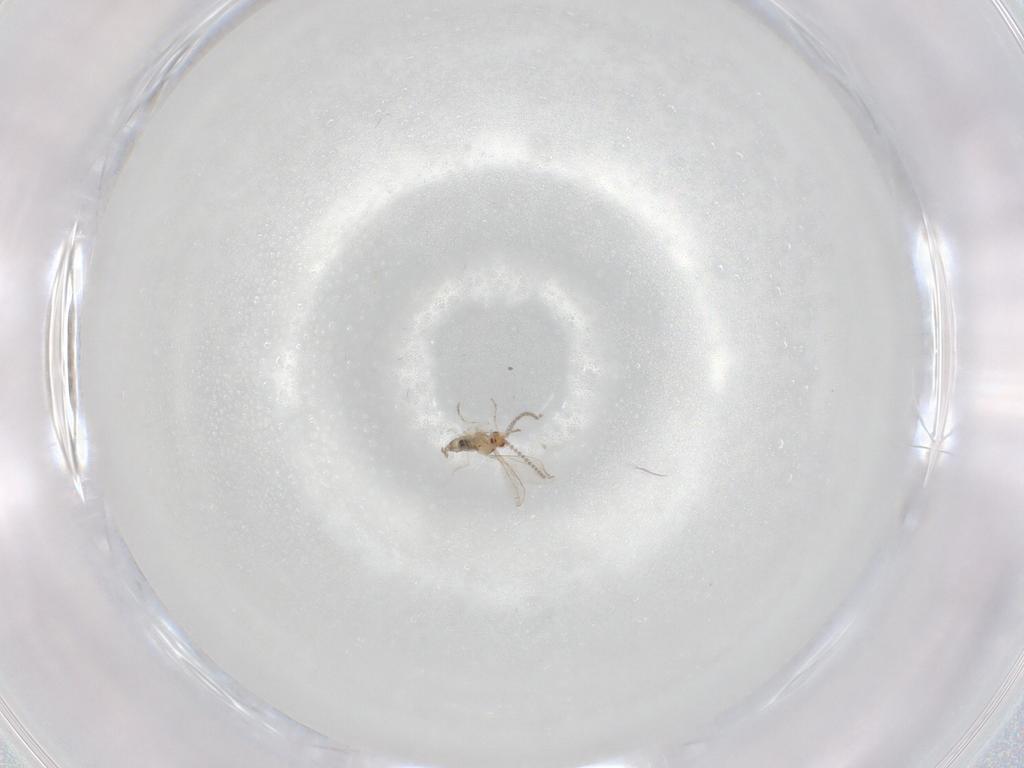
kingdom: Animalia
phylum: Arthropoda
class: Insecta
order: Diptera
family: Cecidomyiidae
